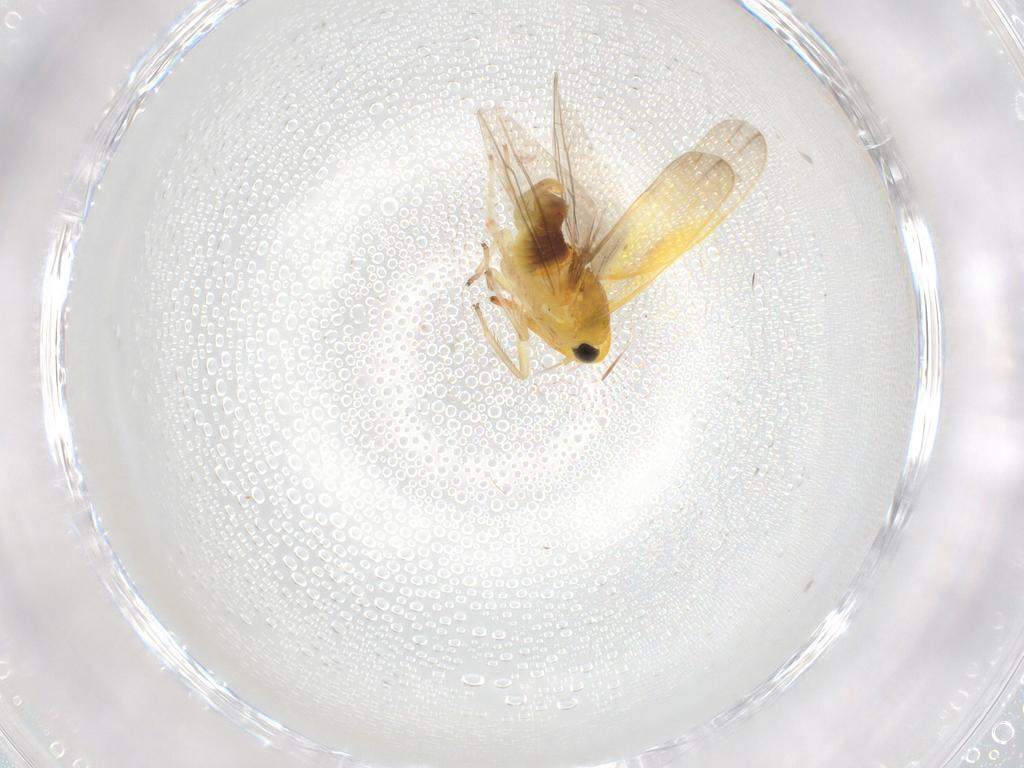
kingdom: Animalia
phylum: Arthropoda
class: Insecta
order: Hemiptera
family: Cicadellidae
